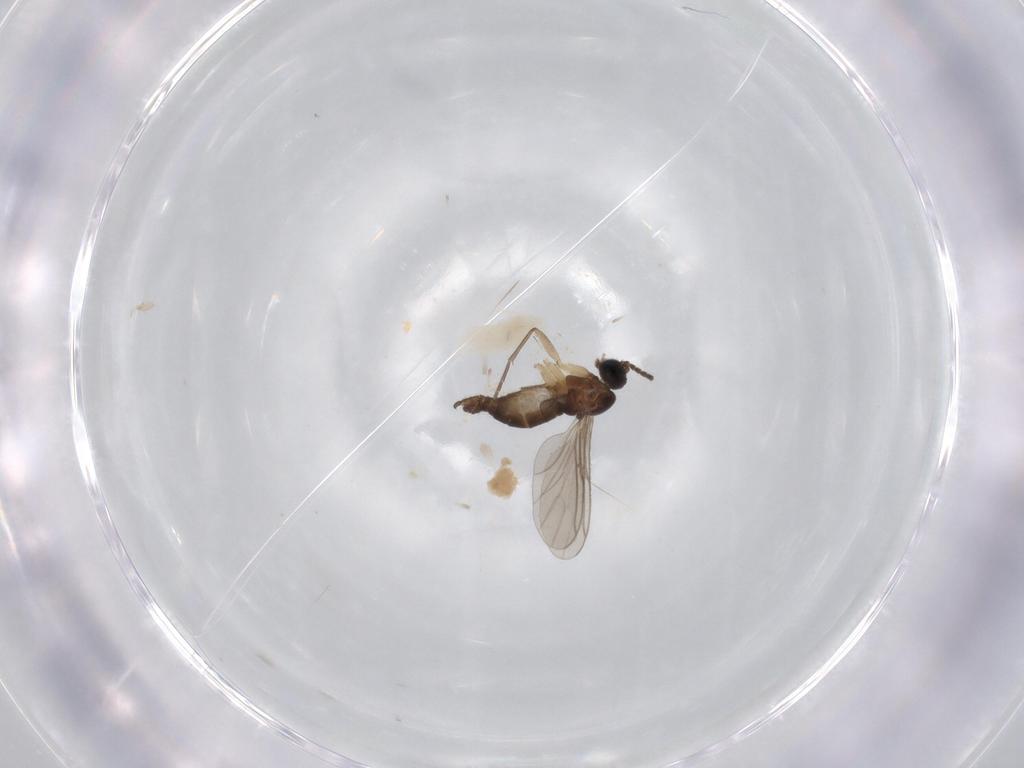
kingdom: Animalia
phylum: Arthropoda
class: Insecta
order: Diptera
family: Sciaridae
